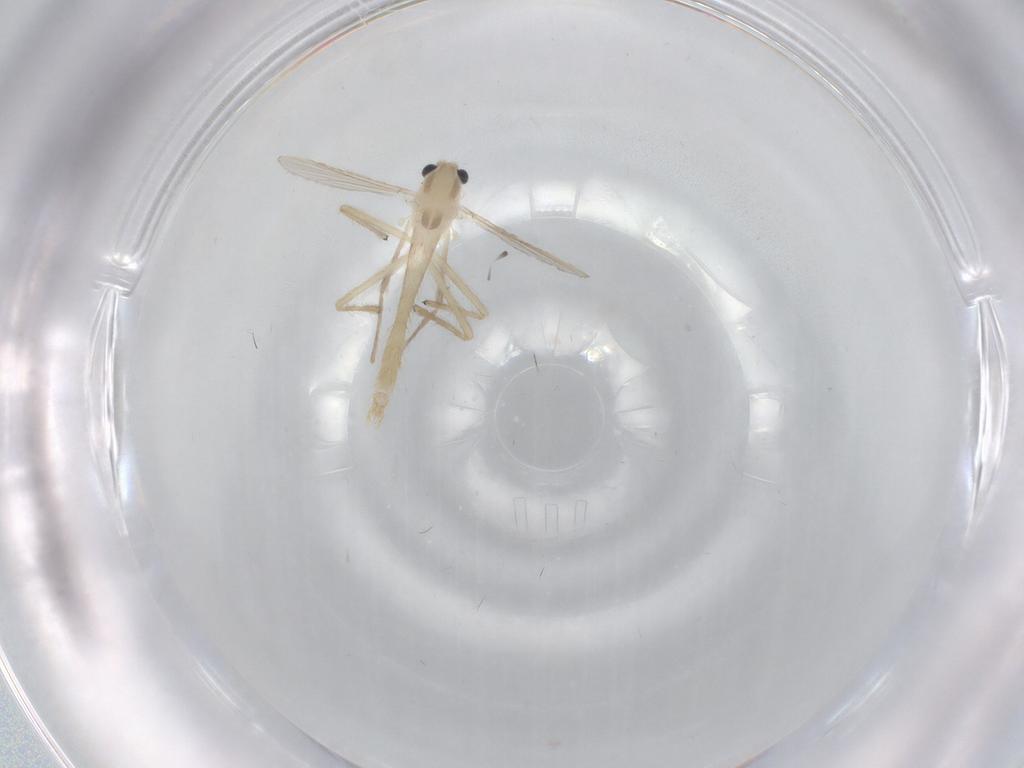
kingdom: Animalia
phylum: Arthropoda
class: Insecta
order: Diptera
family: Chironomidae
